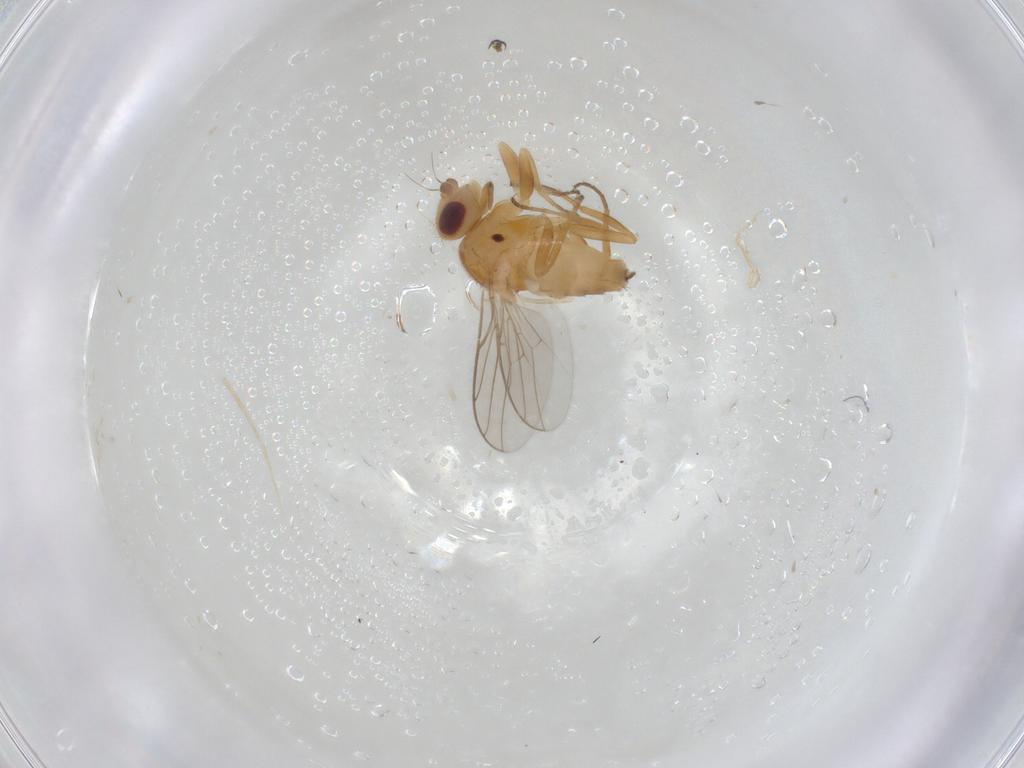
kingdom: Animalia
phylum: Arthropoda
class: Insecta
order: Diptera
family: Chloropidae
